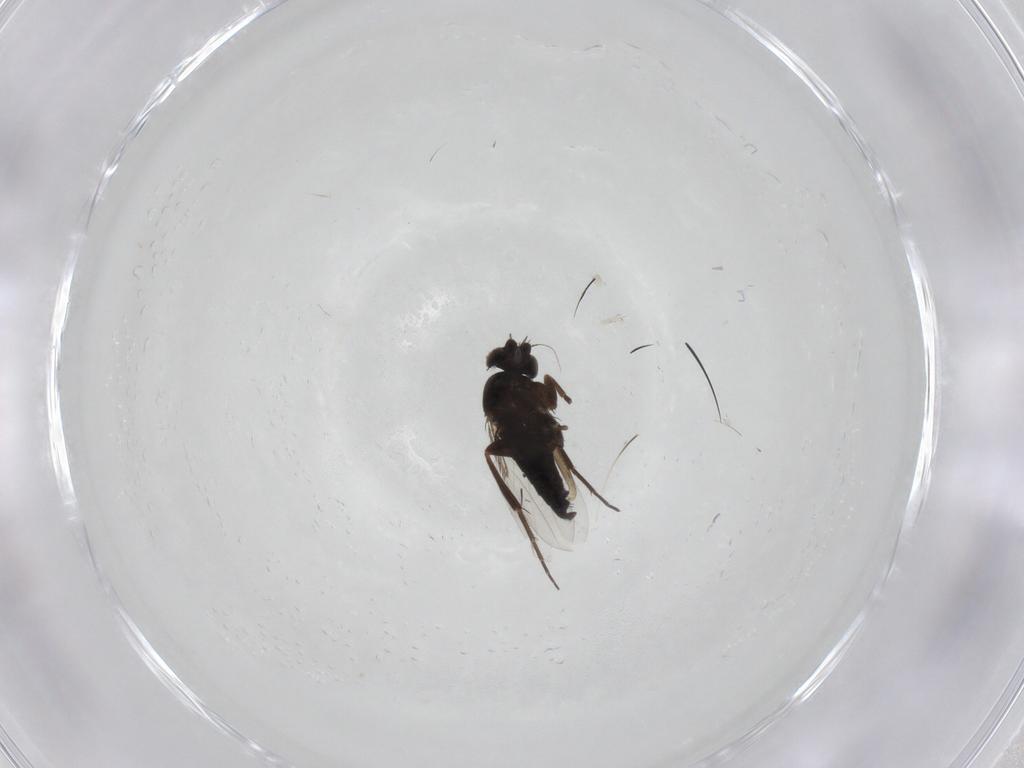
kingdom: Animalia
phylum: Arthropoda
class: Insecta
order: Diptera
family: Phoridae
